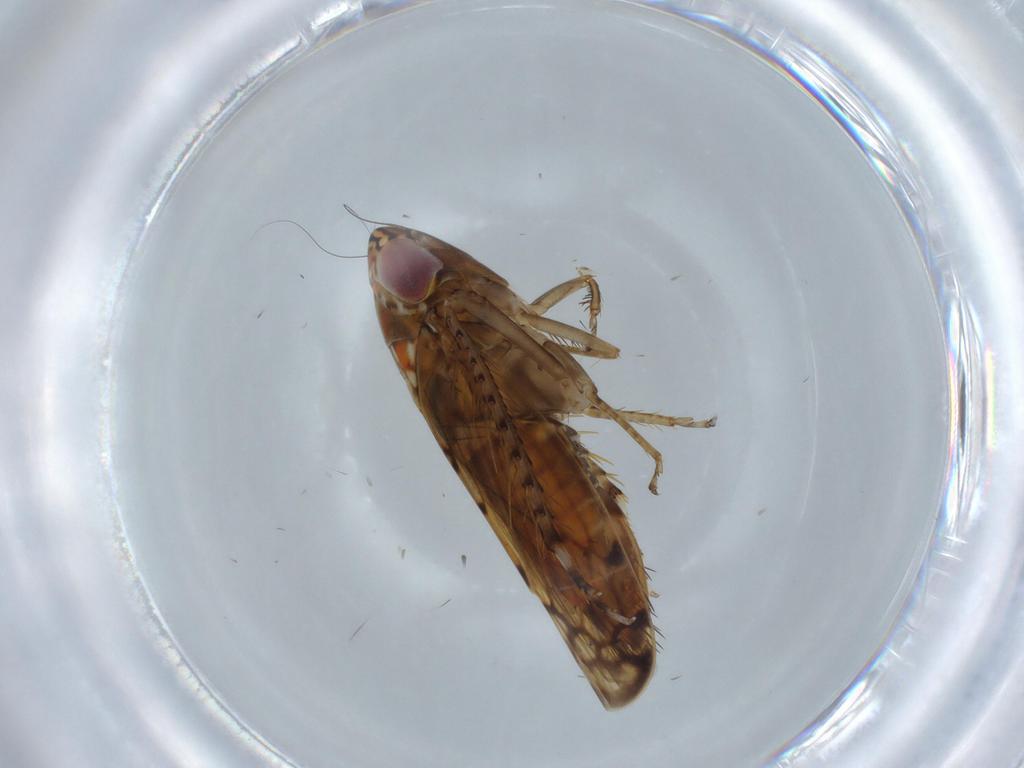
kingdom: Animalia
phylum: Arthropoda
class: Insecta
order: Hemiptera
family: Cicadellidae
